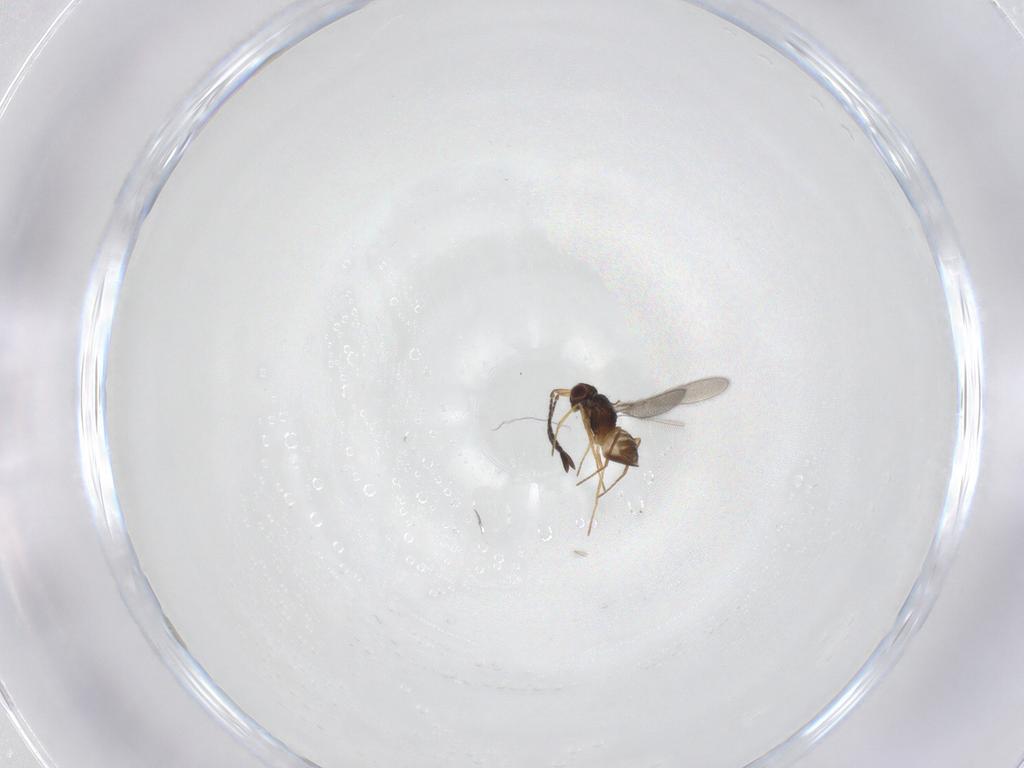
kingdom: Animalia
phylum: Arthropoda
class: Insecta
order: Hymenoptera
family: Mymaridae
